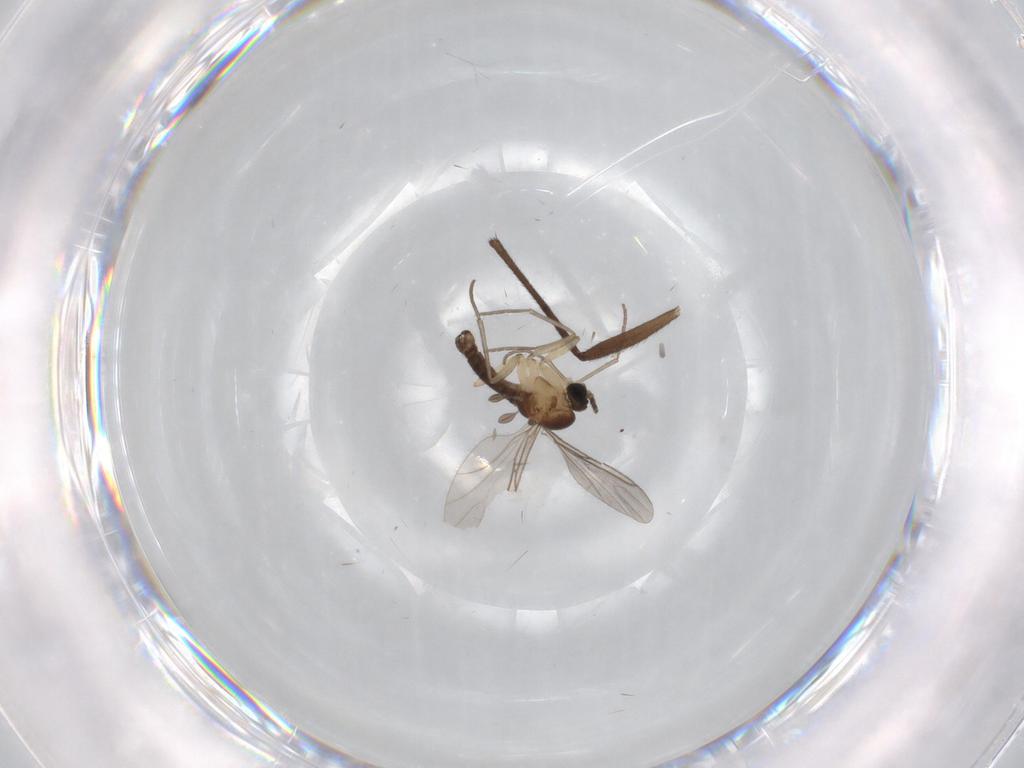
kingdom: Animalia
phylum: Arthropoda
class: Insecta
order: Diptera
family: Sciaridae
